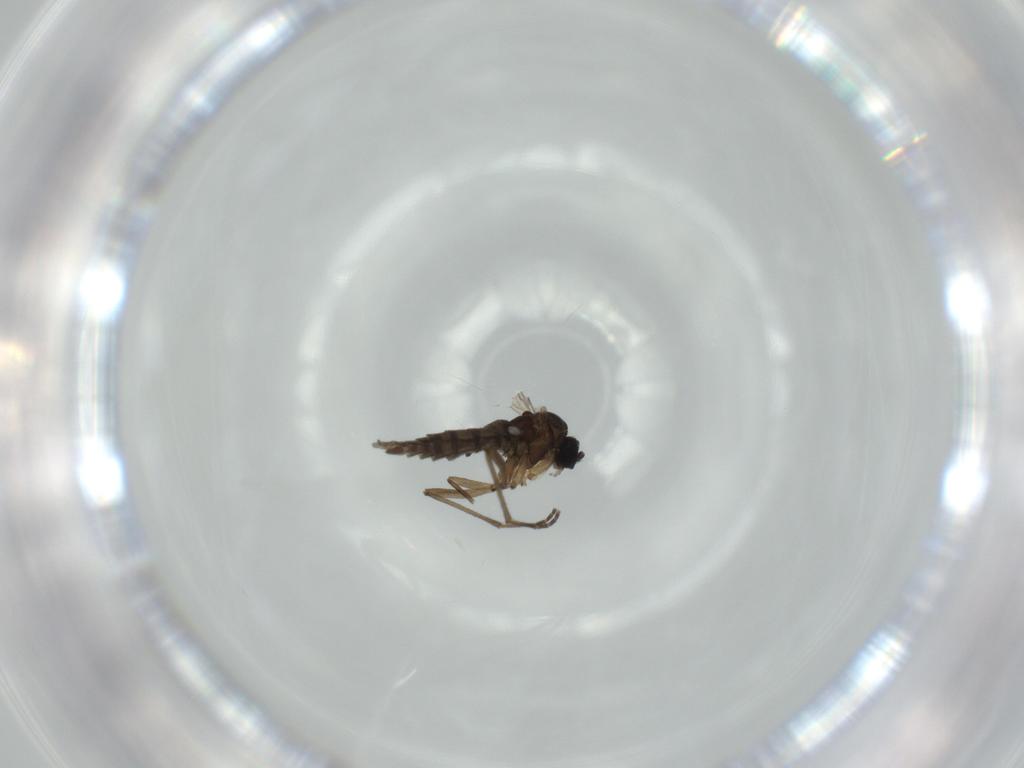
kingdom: Animalia
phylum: Arthropoda
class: Insecta
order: Diptera
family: Sciaridae
